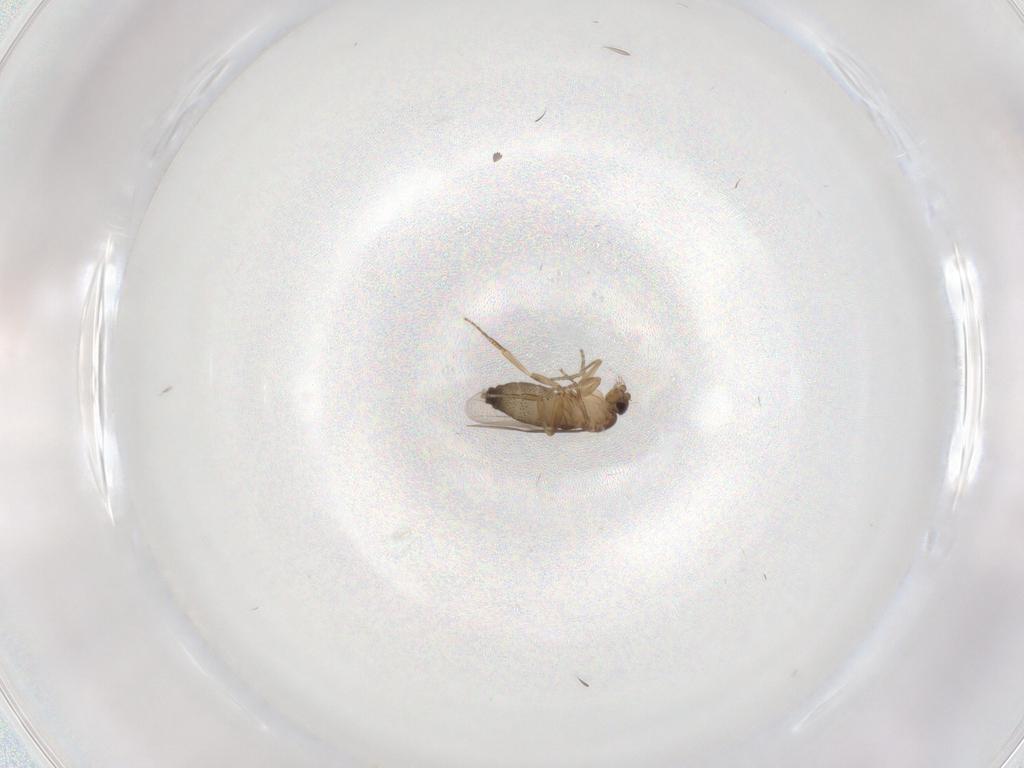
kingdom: Animalia
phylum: Arthropoda
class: Insecta
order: Diptera
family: Phoridae
